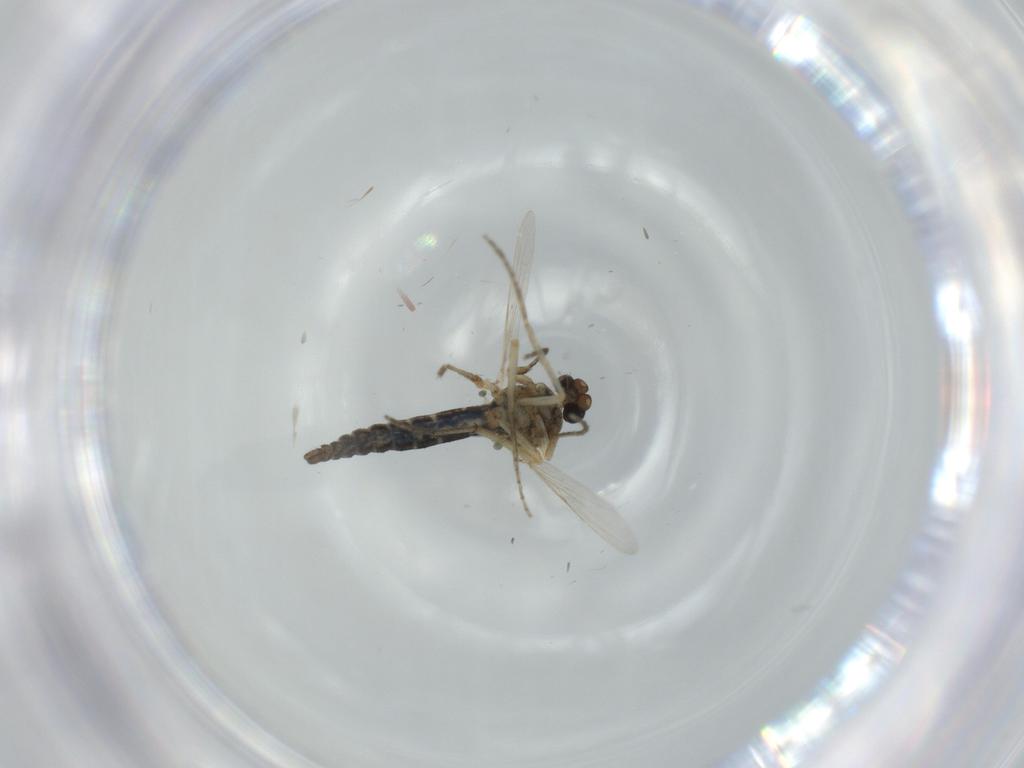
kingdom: Animalia
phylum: Arthropoda
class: Insecta
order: Diptera
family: Ceratopogonidae
